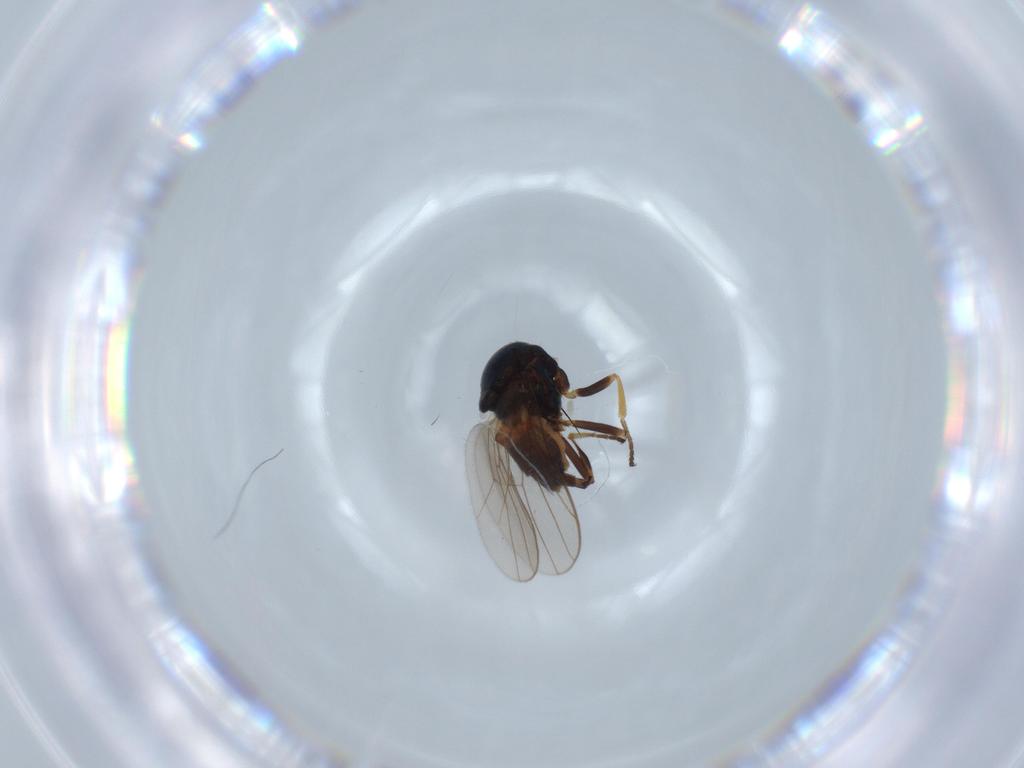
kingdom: Animalia
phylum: Arthropoda
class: Insecta
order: Diptera
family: Chloropidae
